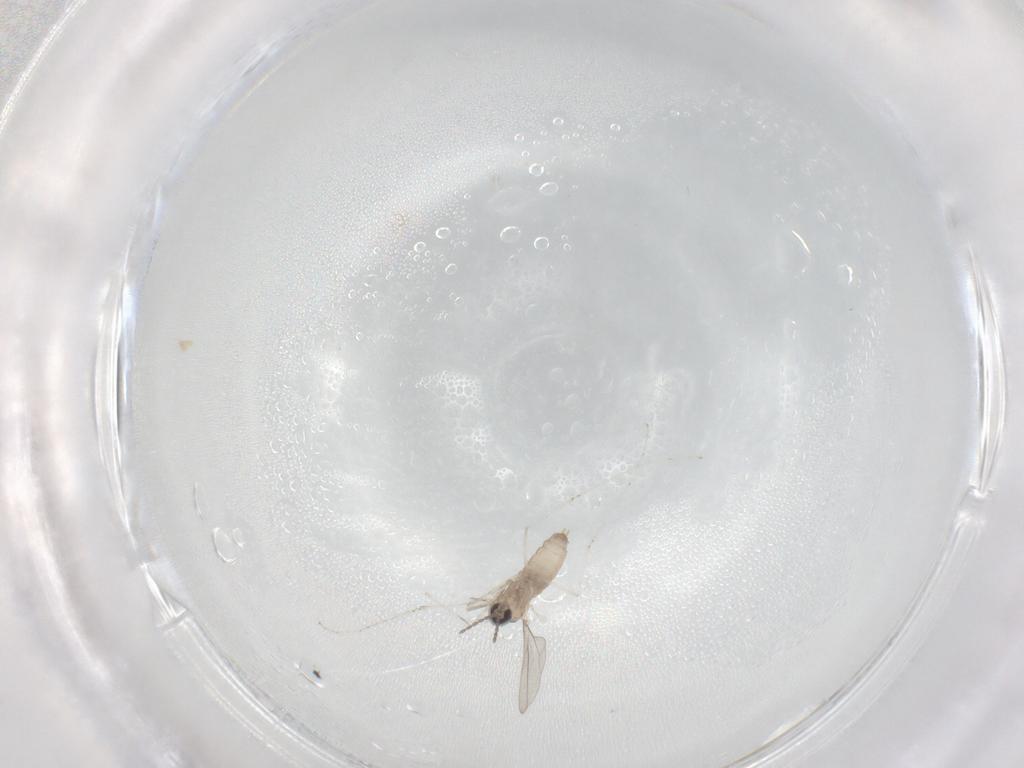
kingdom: Animalia
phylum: Arthropoda
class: Insecta
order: Diptera
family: Cecidomyiidae
